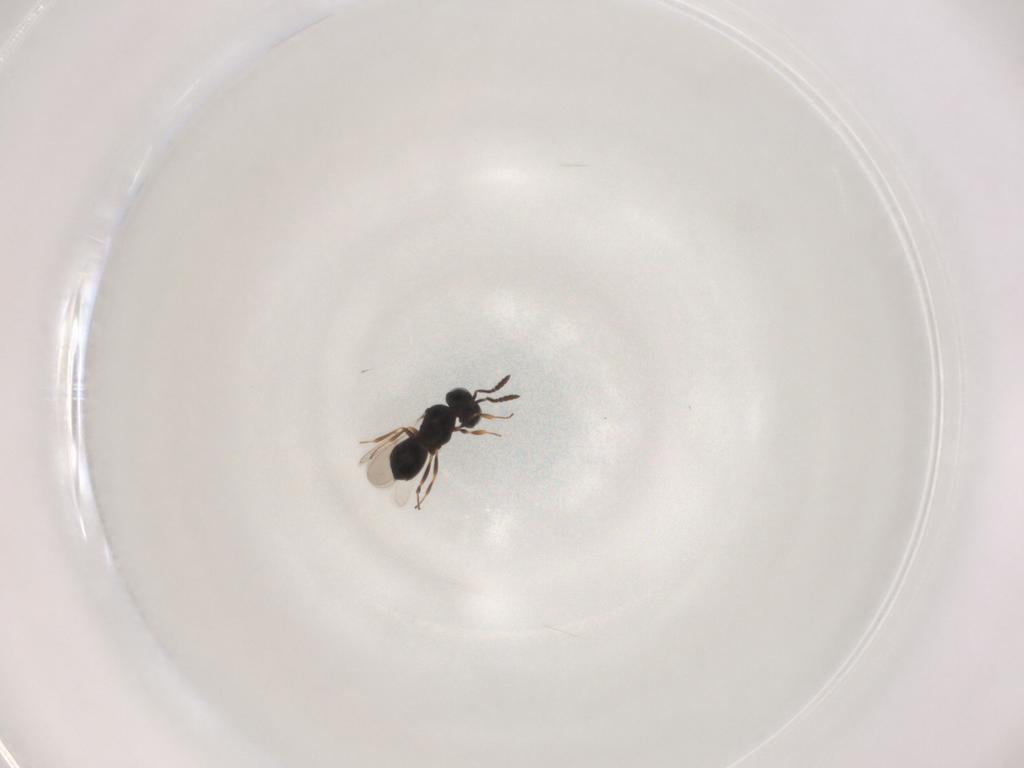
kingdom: Animalia
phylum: Arthropoda
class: Insecta
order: Hymenoptera
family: Scelionidae
